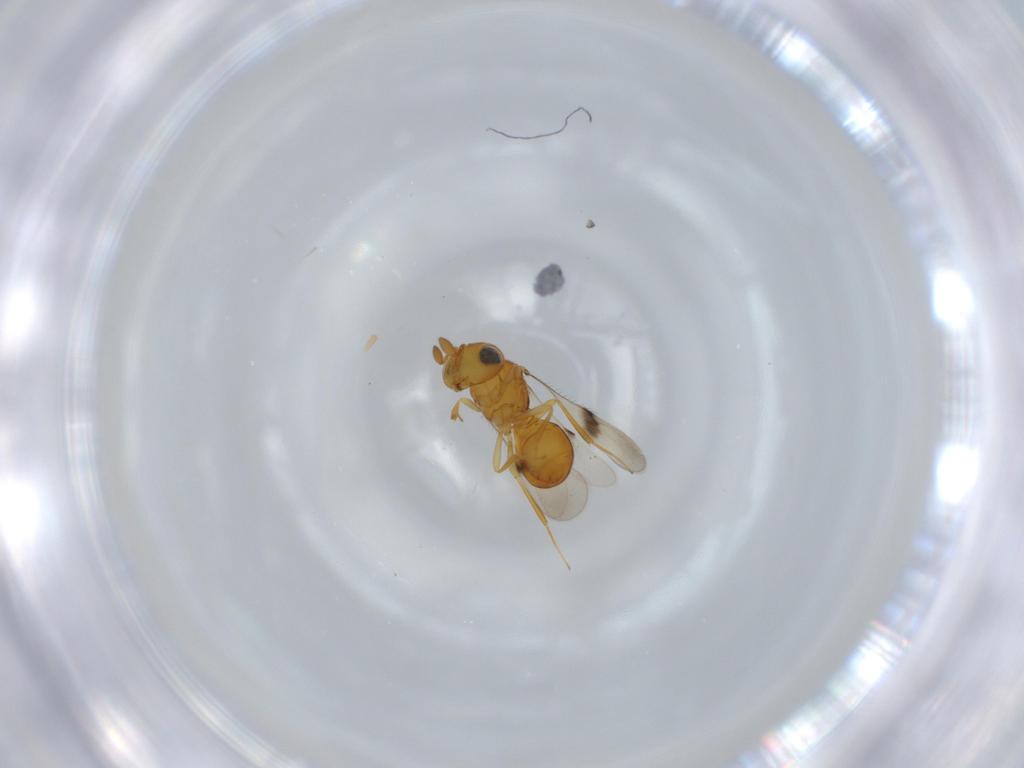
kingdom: Animalia
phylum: Arthropoda
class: Insecta
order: Hymenoptera
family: Scelionidae
